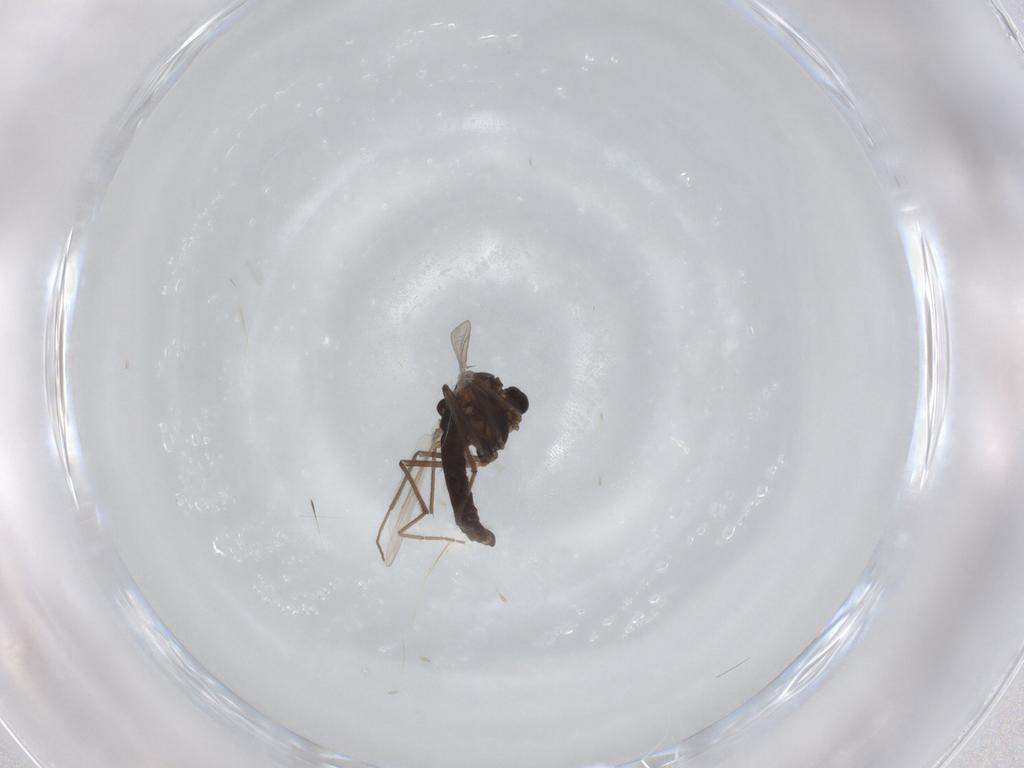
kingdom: Animalia
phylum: Arthropoda
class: Insecta
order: Diptera
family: Chironomidae
